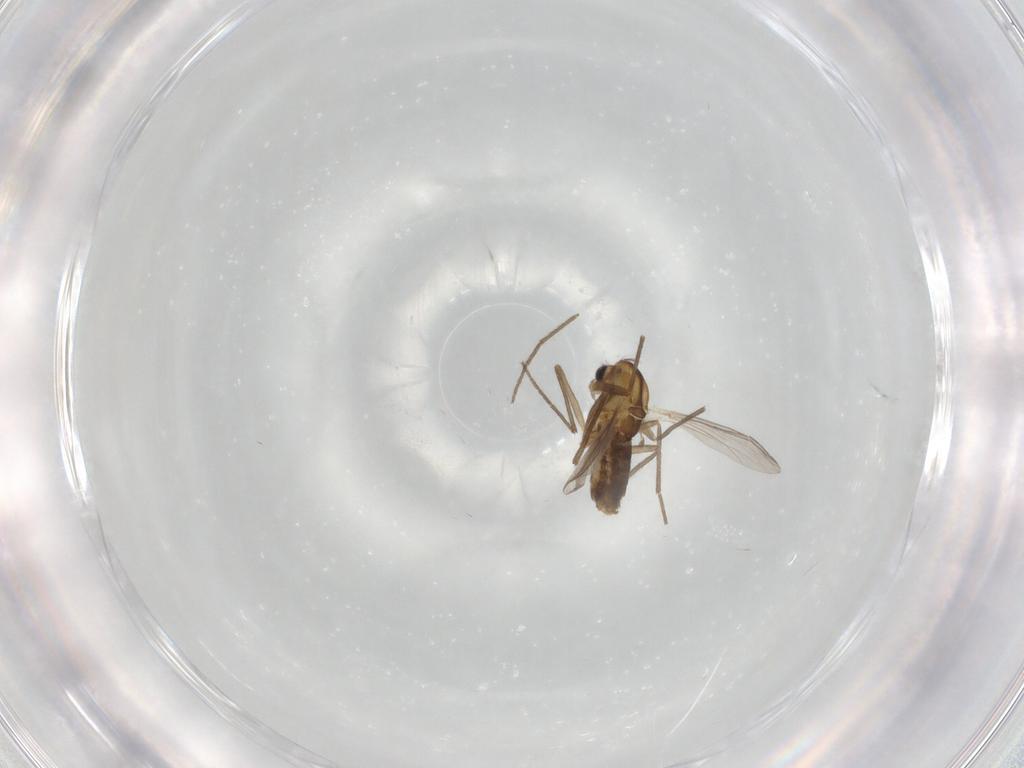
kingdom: Animalia
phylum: Arthropoda
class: Insecta
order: Diptera
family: Chironomidae
